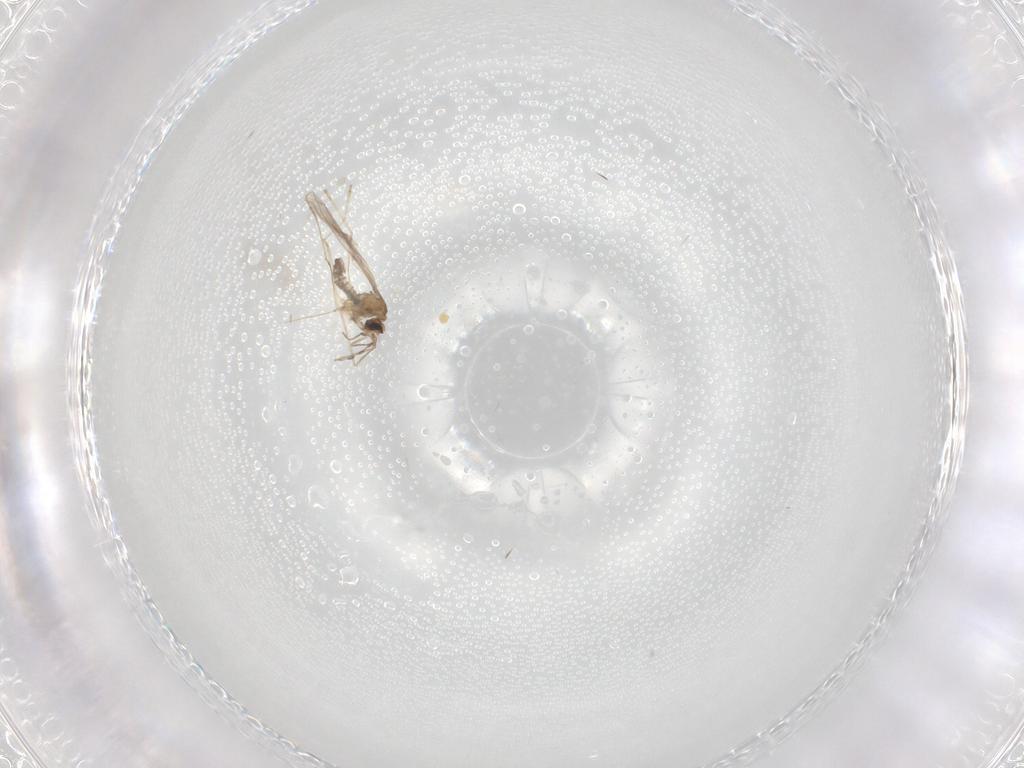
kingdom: Animalia
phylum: Arthropoda
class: Insecta
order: Diptera
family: Cecidomyiidae
